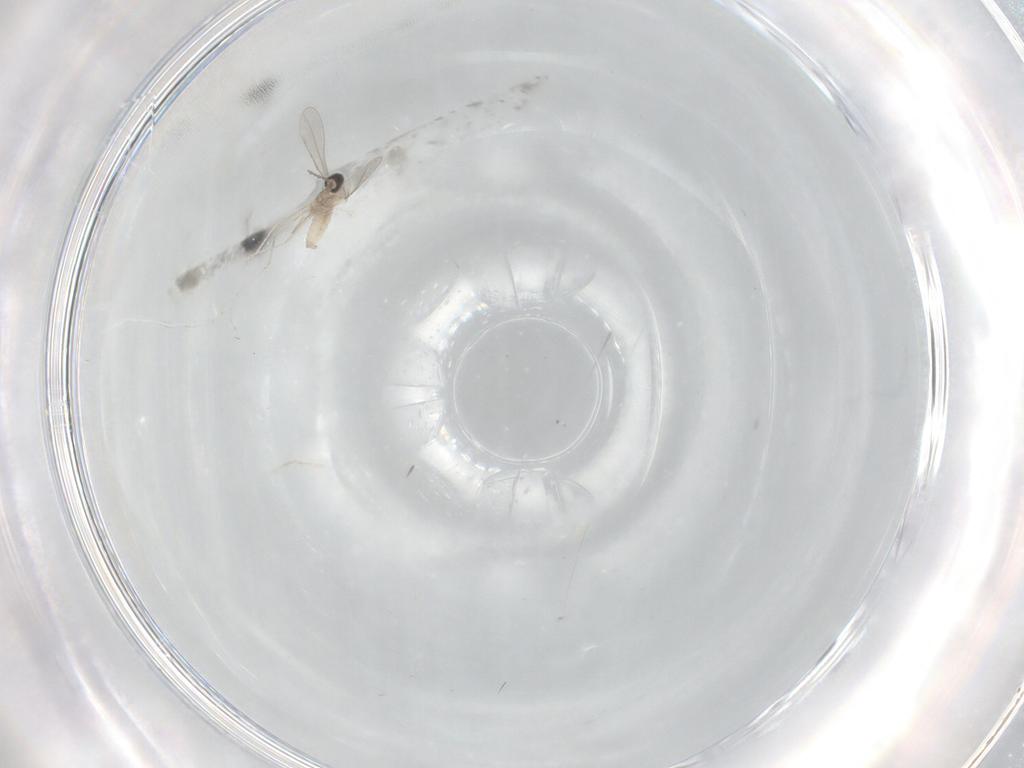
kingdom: Animalia
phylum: Arthropoda
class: Insecta
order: Diptera
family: Cecidomyiidae
